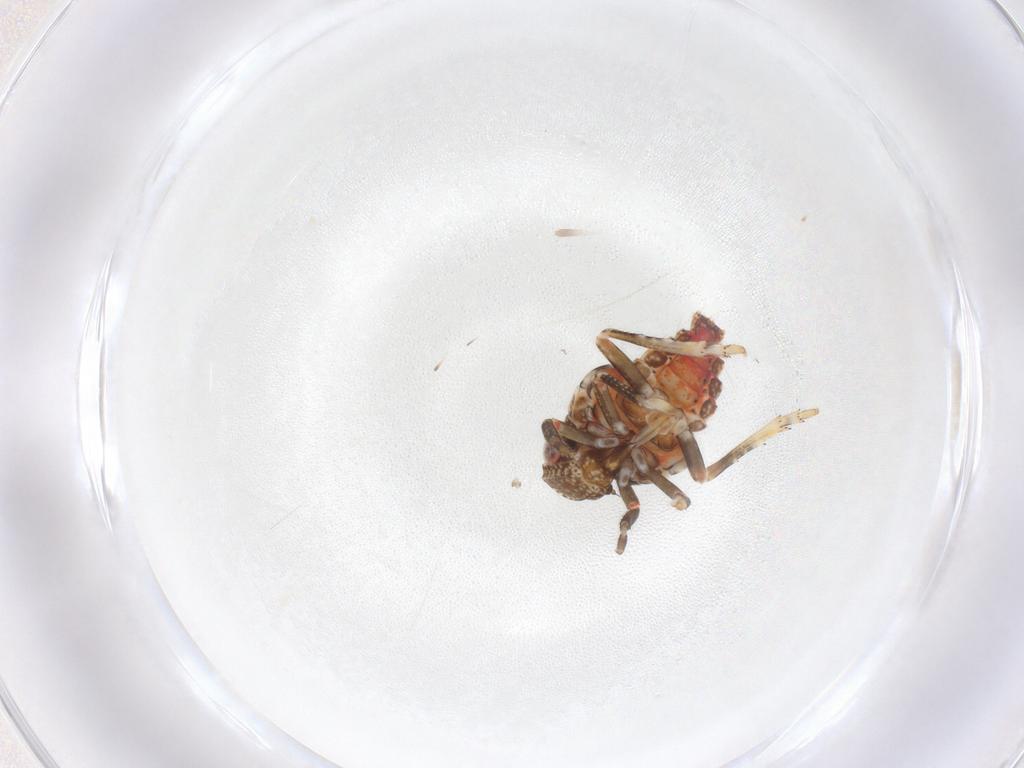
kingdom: Animalia
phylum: Arthropoda
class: Insecta
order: Hemiptera
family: Tropiduchidae
